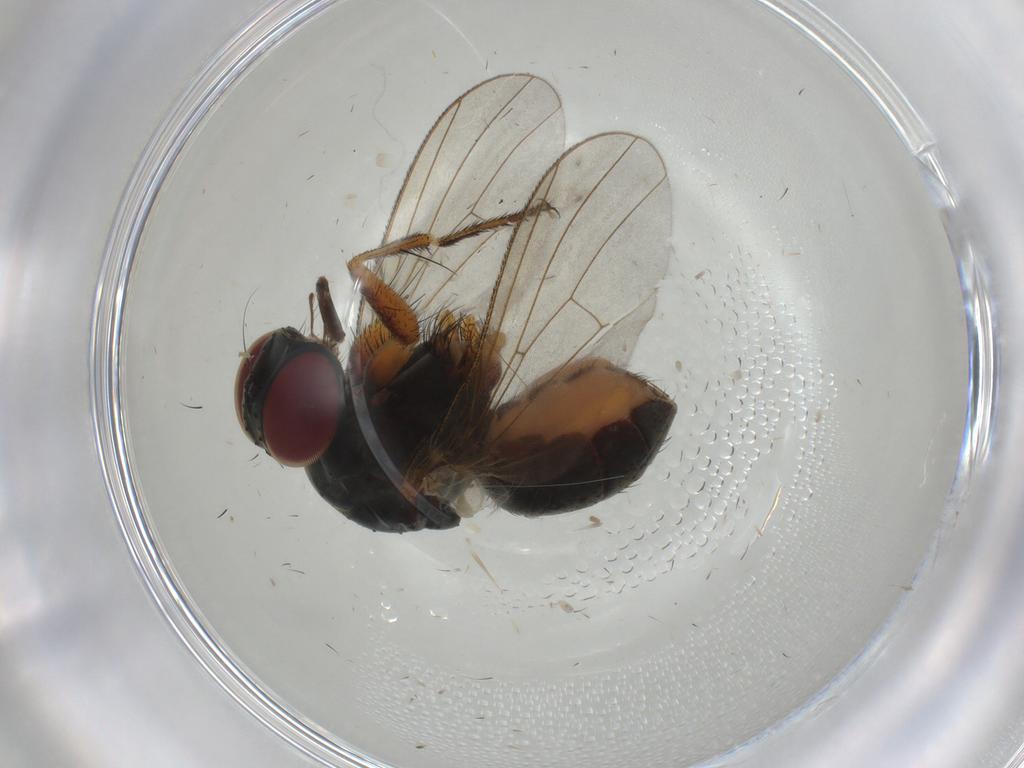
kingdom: Animalia
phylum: Arthropoda
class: Insecta
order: Diptera
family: Muscidae
